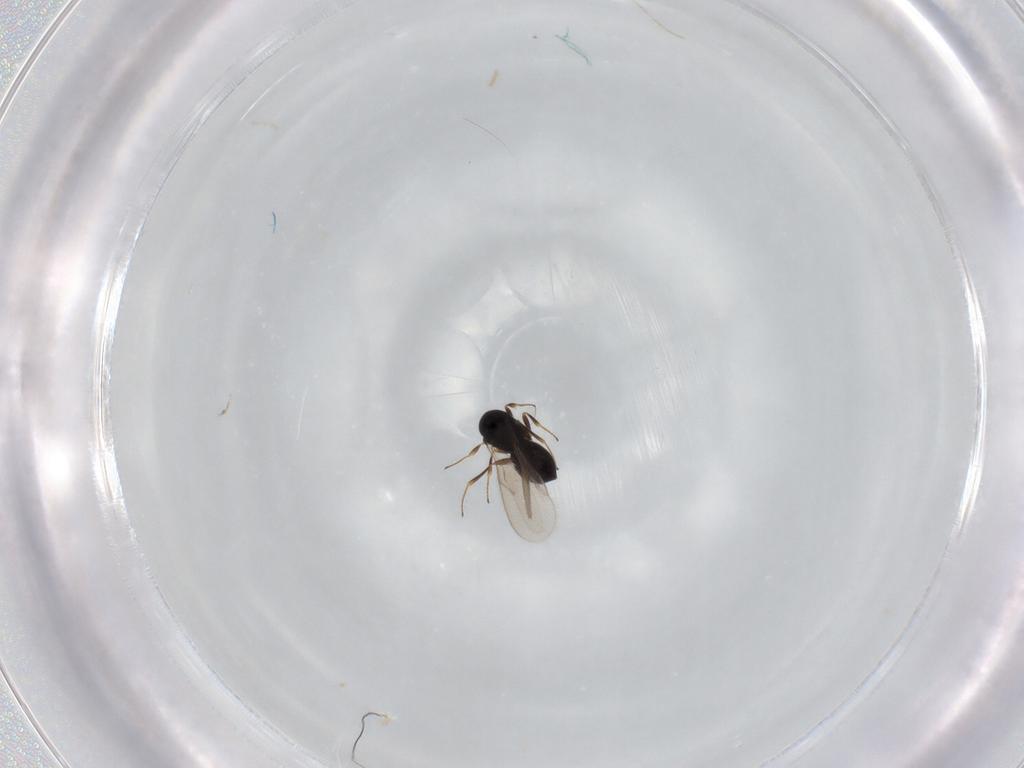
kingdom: Animalia
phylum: Arthropoda
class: Insecta
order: Hymenoptera
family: Scelionidae
